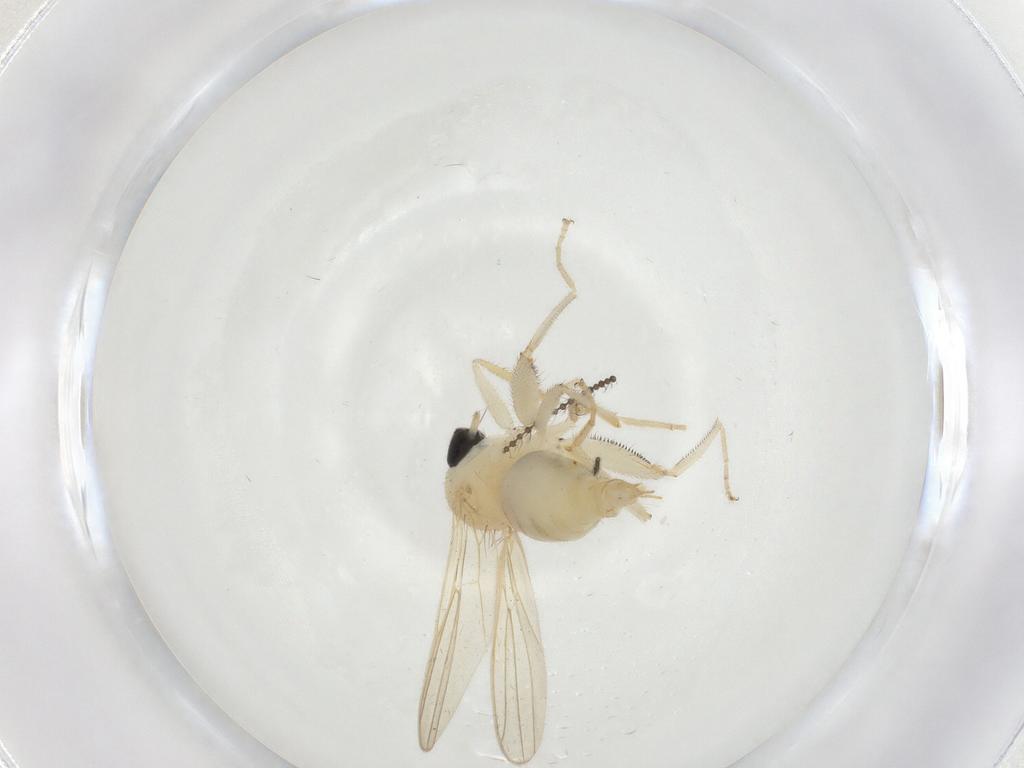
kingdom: Animalia
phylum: Arthropoda
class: Insecta
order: Diptera
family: Hybotidae
